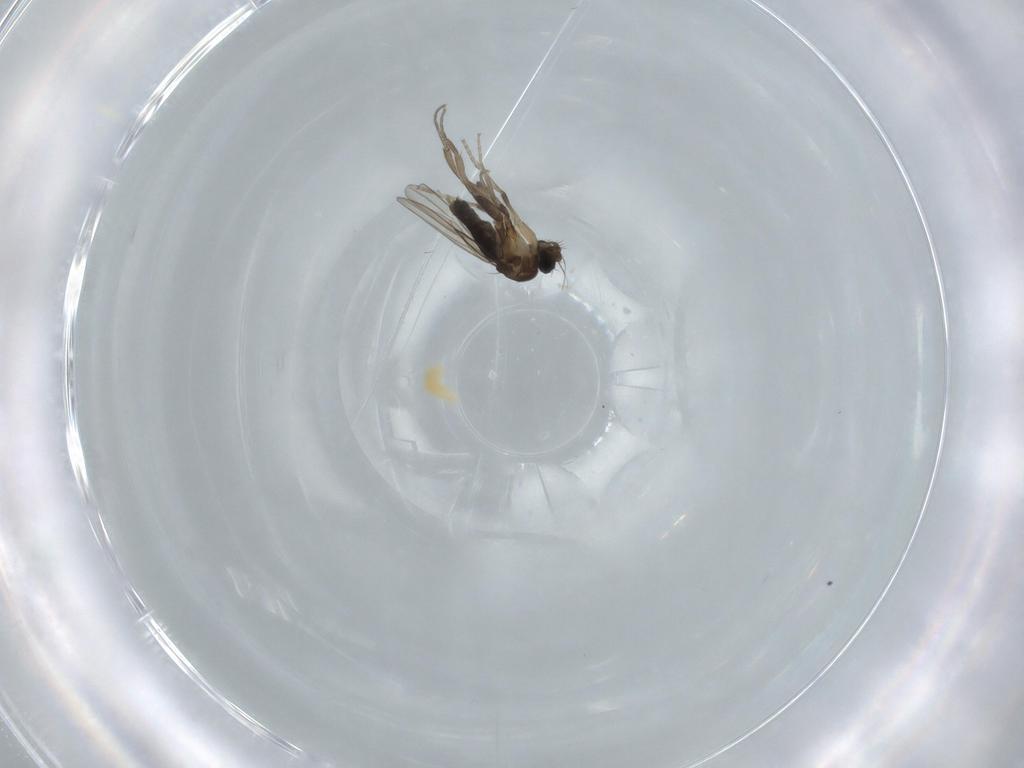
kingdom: Animalia
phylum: Arthropoda
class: Insecta
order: Diptera
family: Phoridae
